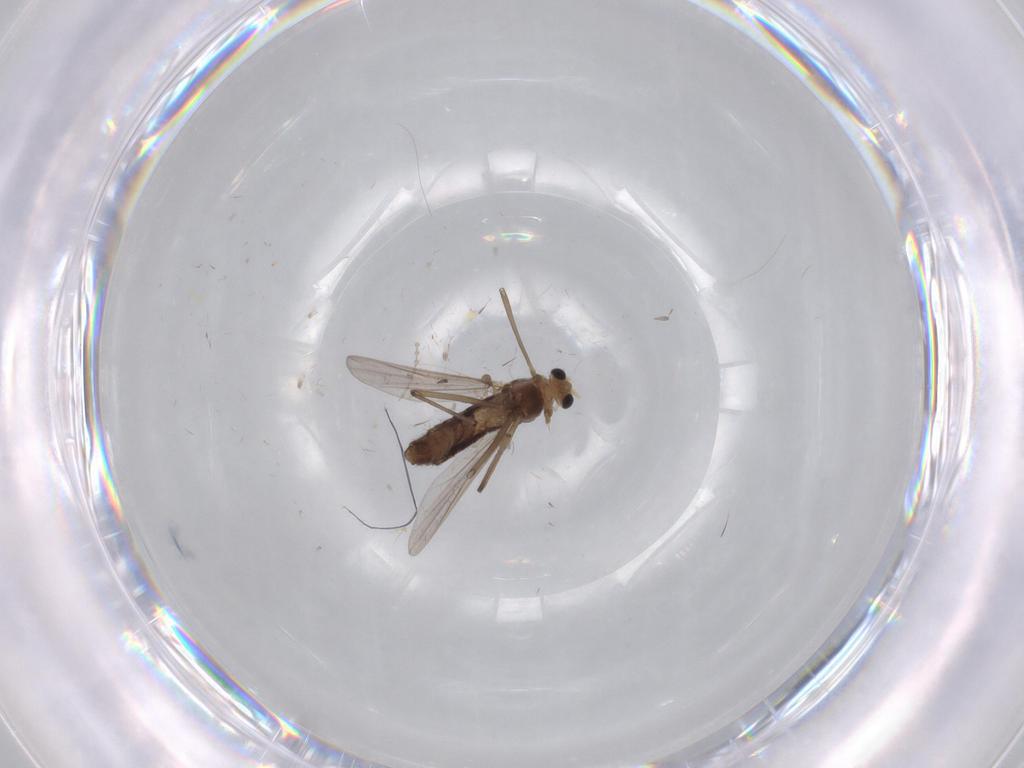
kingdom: Animalia
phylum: Arthropoda
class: Insecta
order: Diptera
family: Chironomidae
